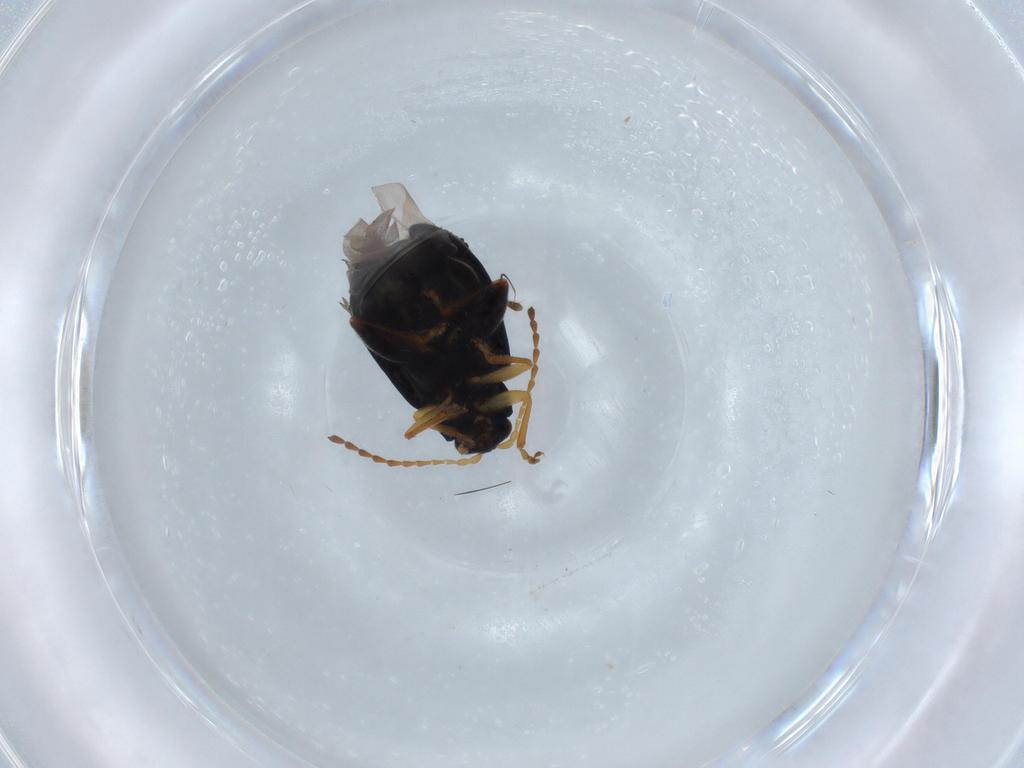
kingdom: Animalia
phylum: Arthropoda
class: Insecta
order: Coleoptera
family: Chrysomelidae
